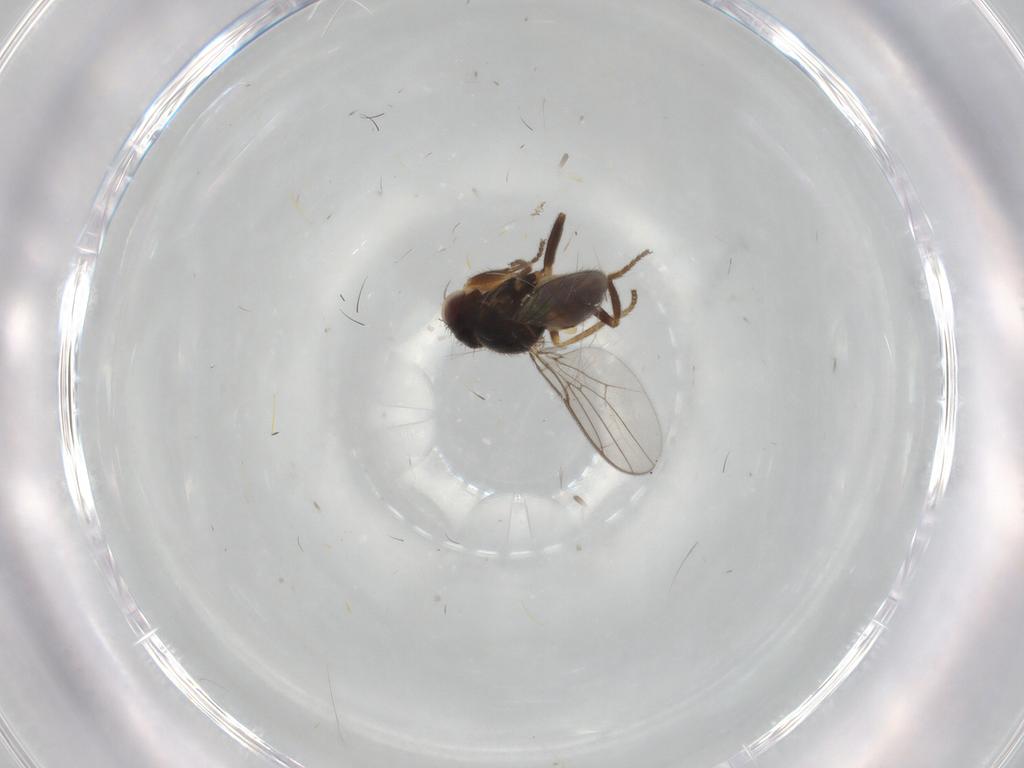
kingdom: Animalia
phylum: Arthropoda
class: Insecta
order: Diptera
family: Chloropidae
